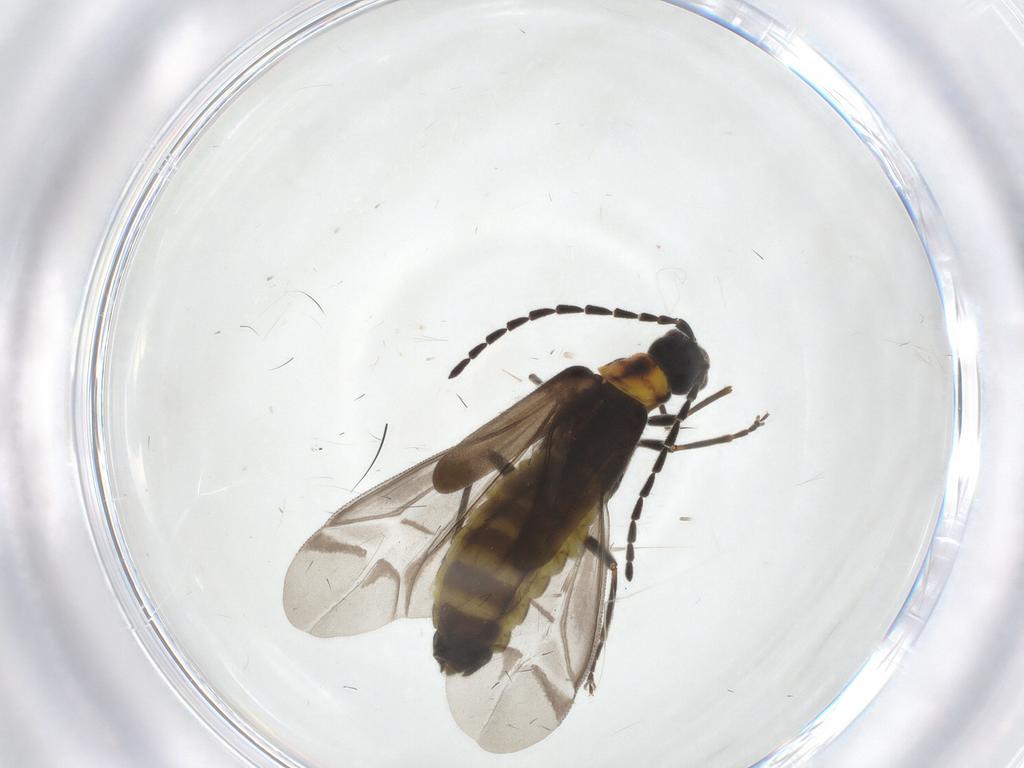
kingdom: Animalia
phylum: Arthropoda
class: Insecta
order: Coleoptera
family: Cantharidae
